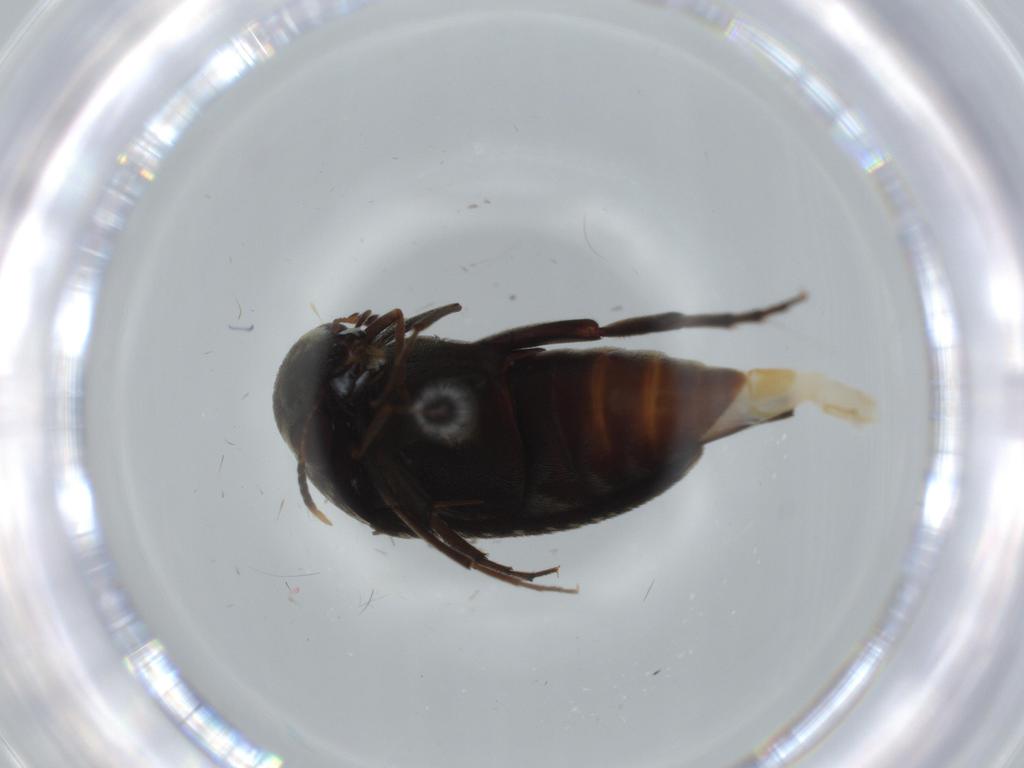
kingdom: Animalia
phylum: Arthropoda
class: Insecta
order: Coleoptera
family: Mordellidae
